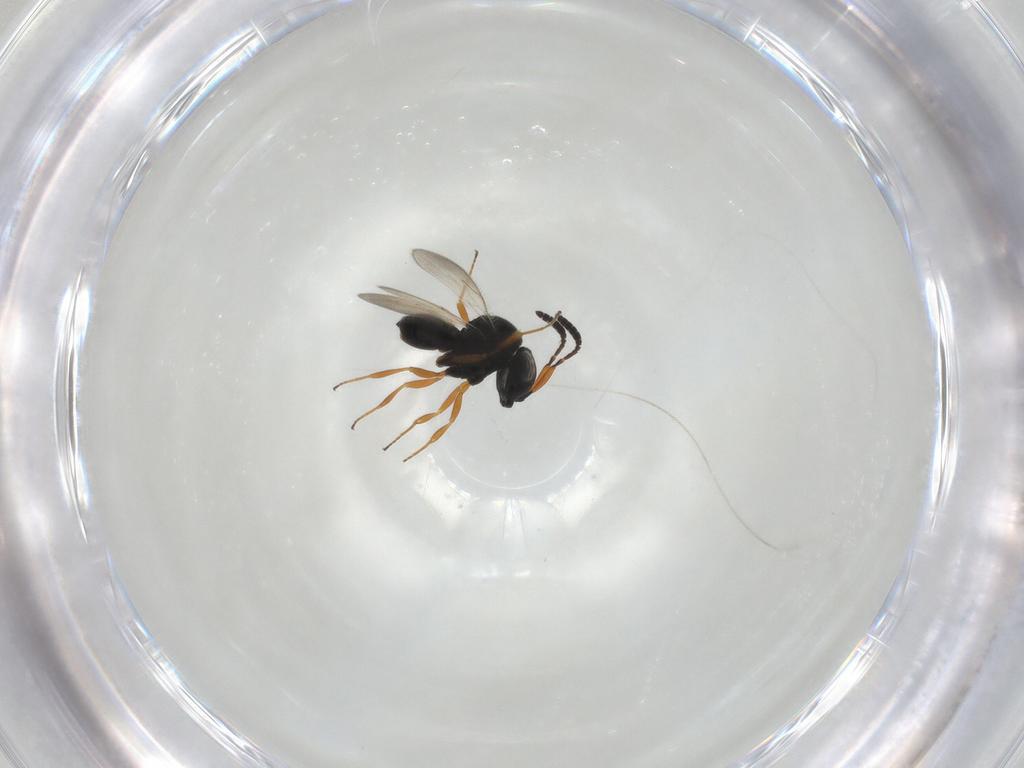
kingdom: Animalia
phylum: Arthropoda
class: Insecta
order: Hymenoptera
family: Scelionidae
